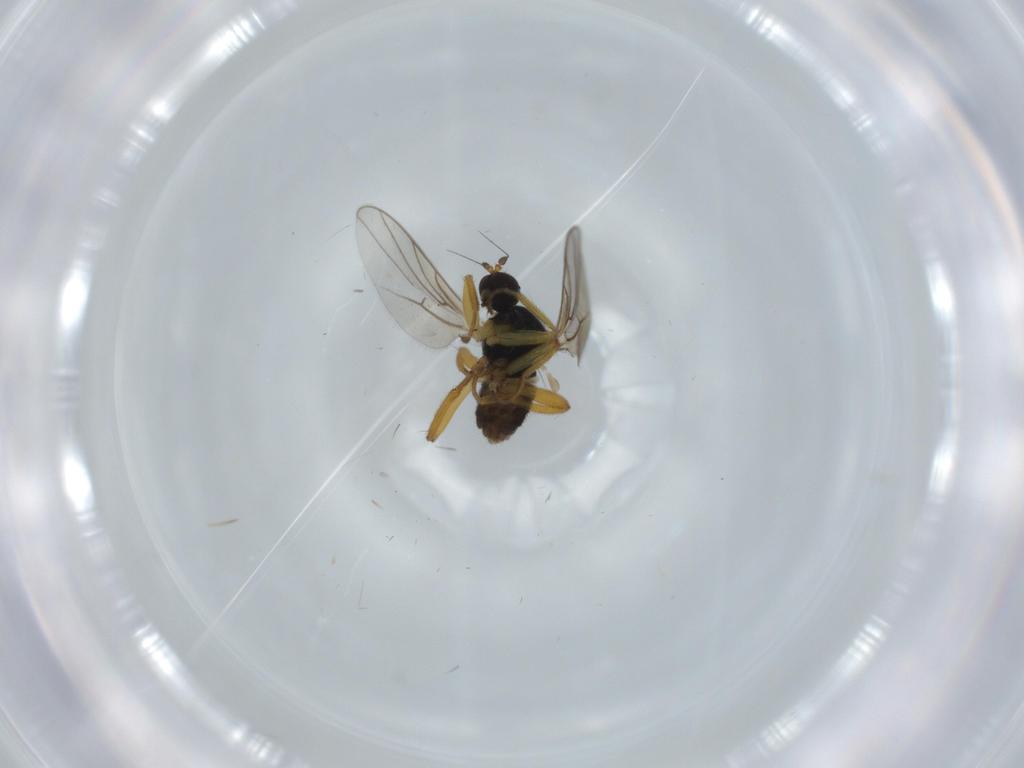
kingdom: Animalia
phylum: Arthropoda
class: Insecta
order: Diptera
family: Hybotidae
